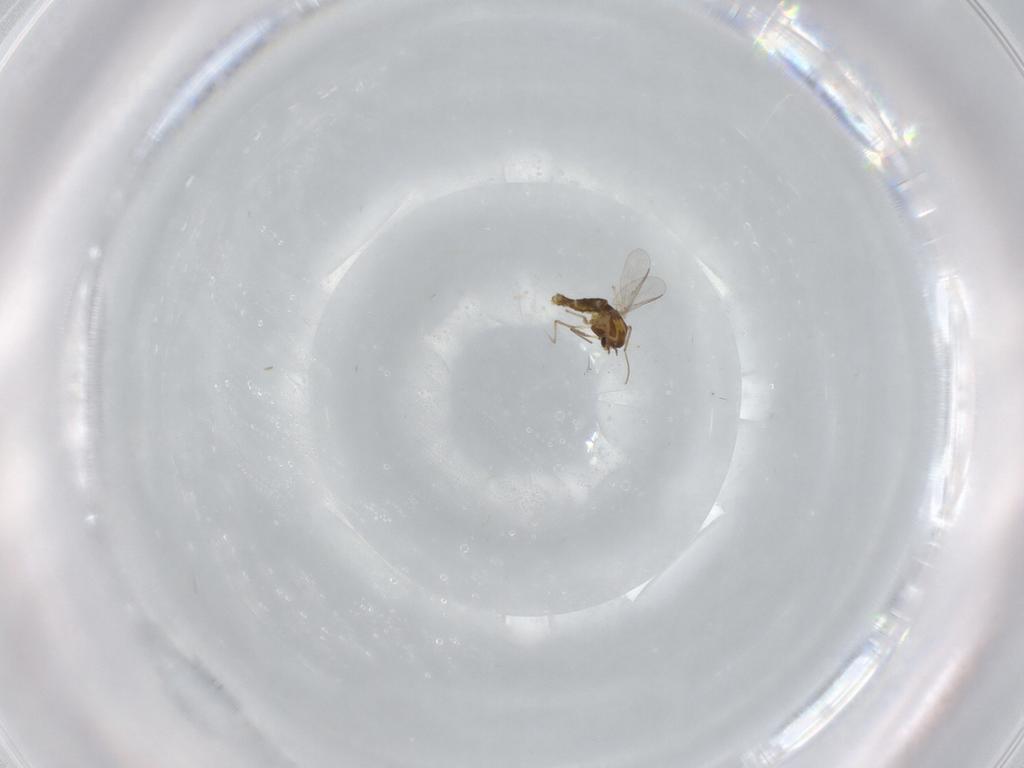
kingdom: Animalia
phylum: Arthropoda
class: Insecta
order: Diptera
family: Chironomidae
